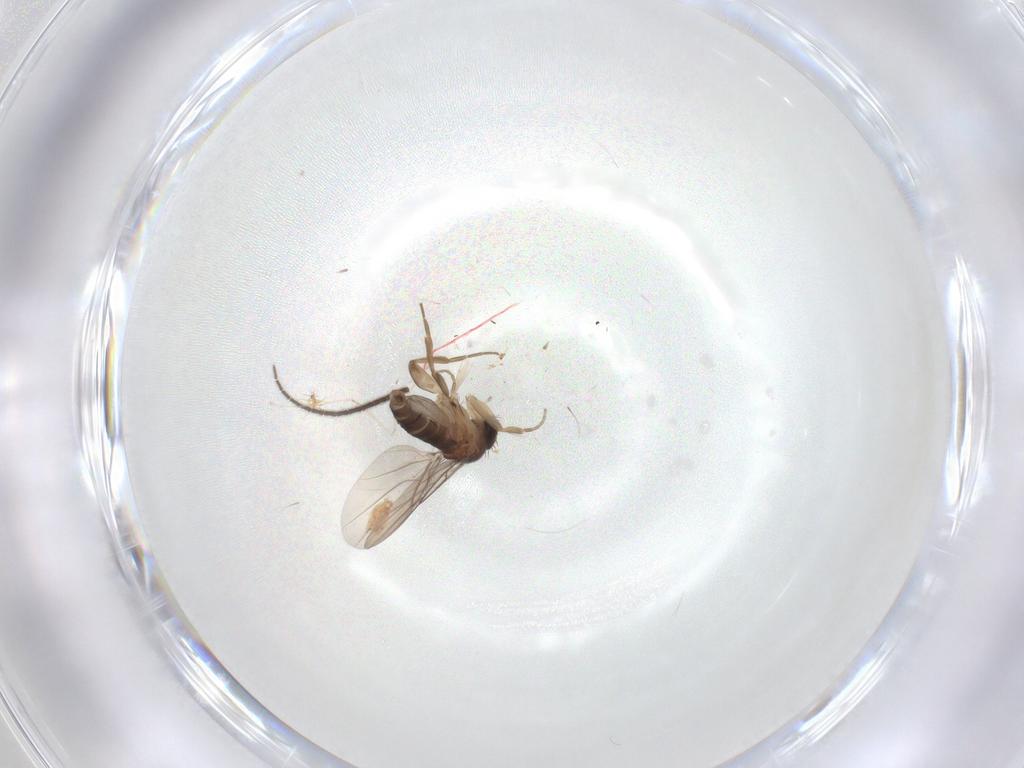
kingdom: Animalia
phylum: Arthropoda
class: Insecta
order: Diptera
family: Phoridae
